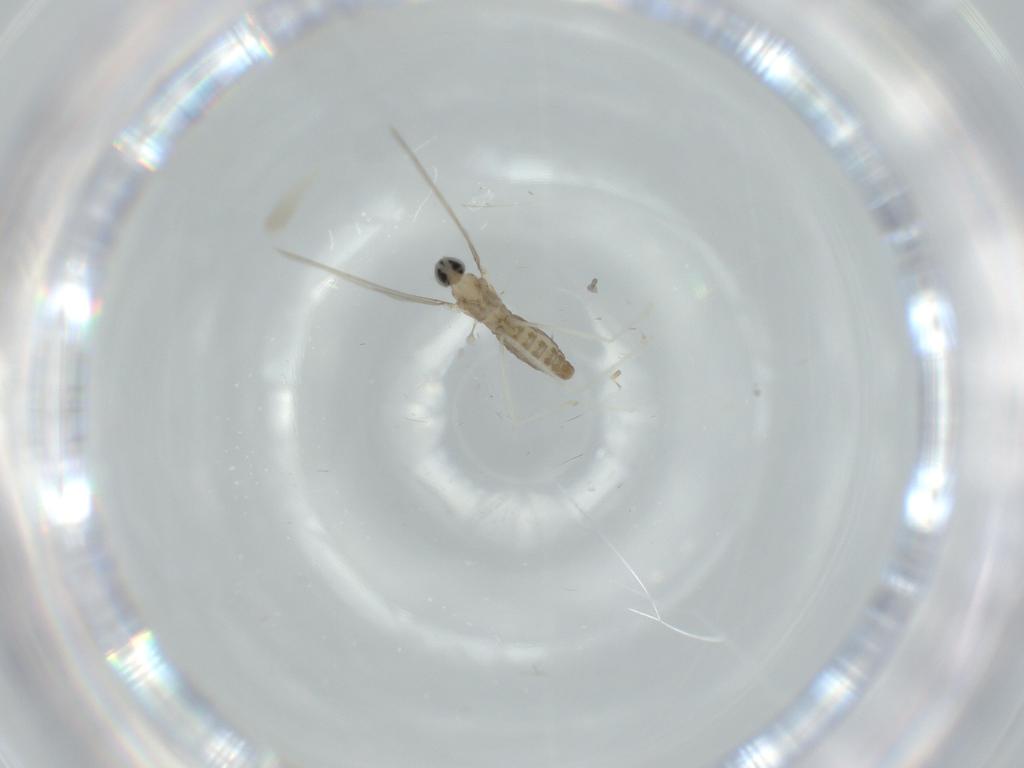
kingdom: Animalia
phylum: Arthropoda
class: Insecta
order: Diptera
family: Cecidomyiidae
